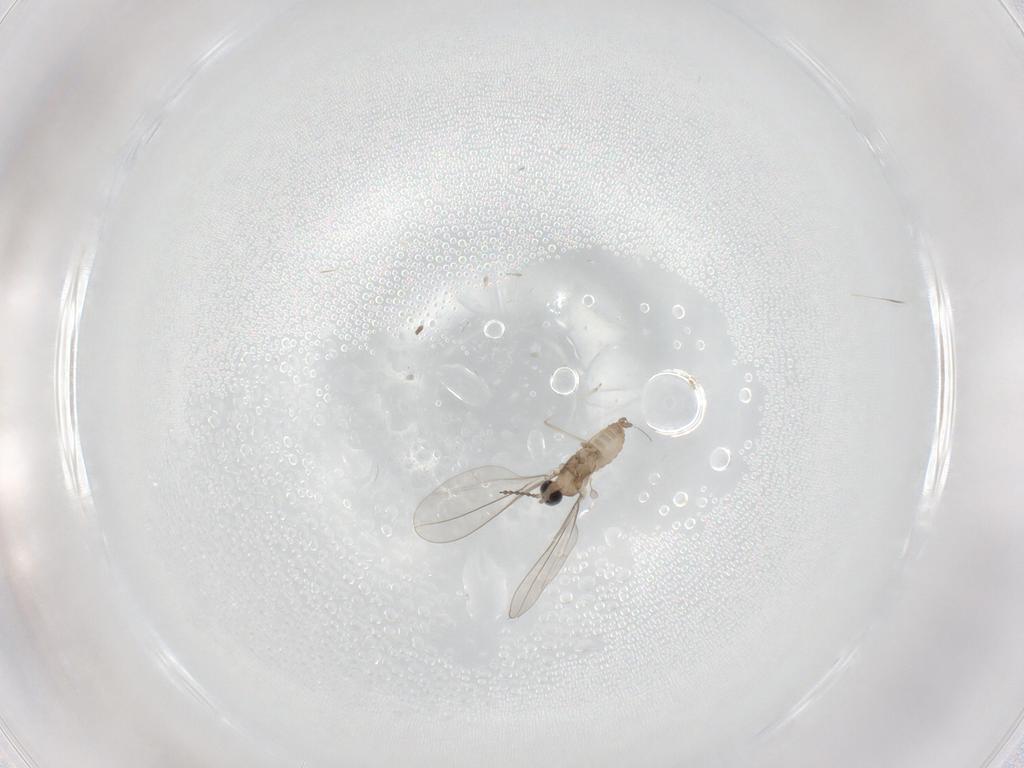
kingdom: Animalia
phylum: Arthropoda
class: Insecta
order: Diptera
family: Cecidomyiidae
